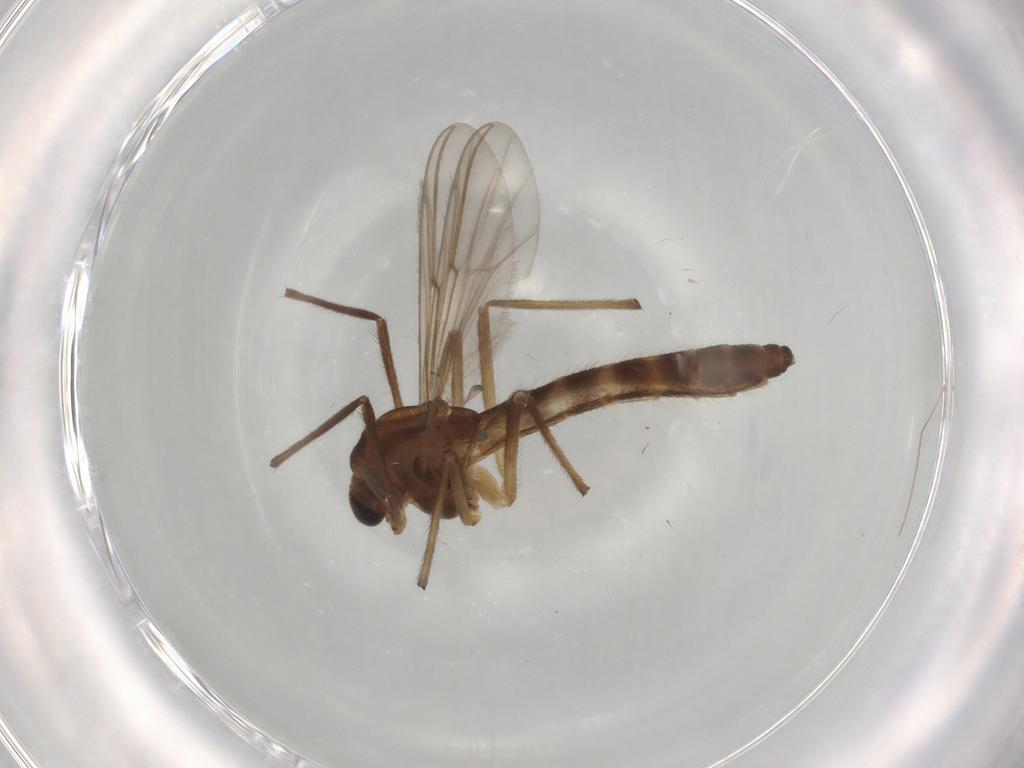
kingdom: Animalia
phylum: Arthropoda
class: Insecta
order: Diptera
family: Chironomidae
